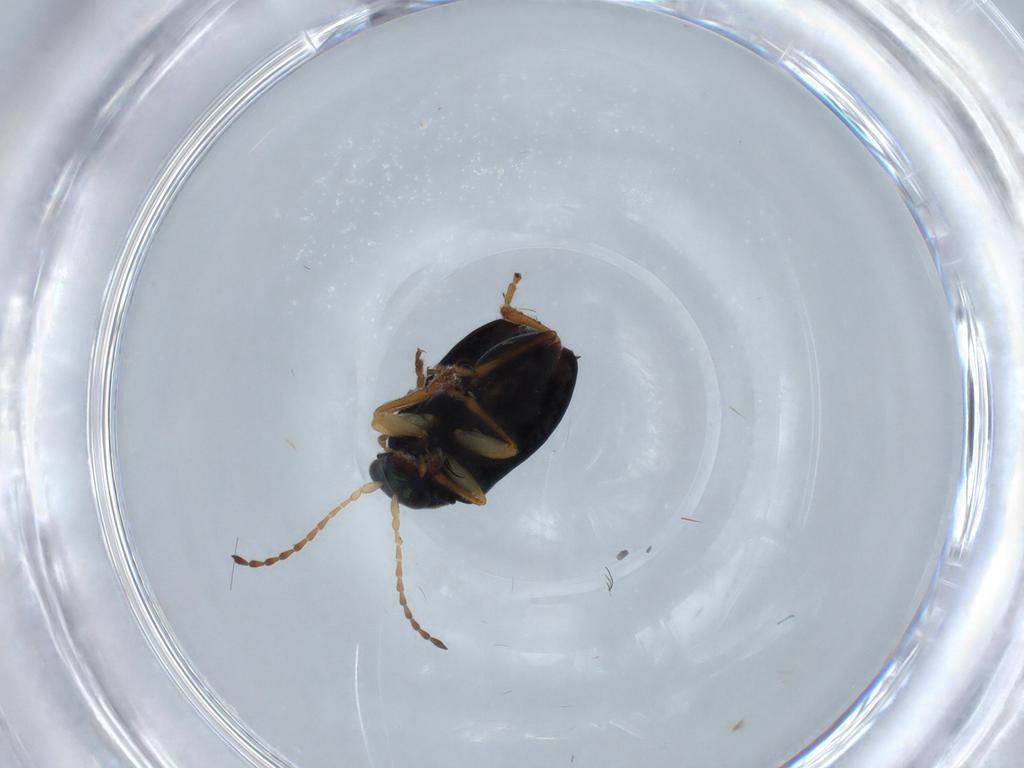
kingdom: Animalia
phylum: Arthropoda
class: Insecta
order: Coleoptera
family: Chrysomelidae
